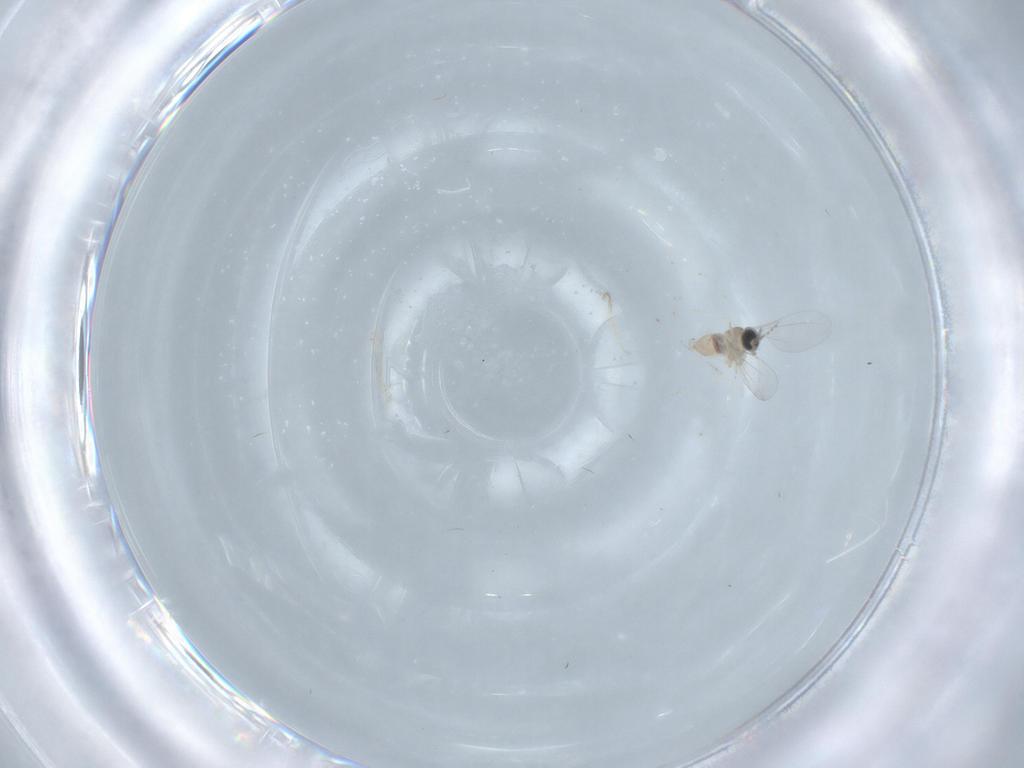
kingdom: Animalia
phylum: Arthropoda
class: Insecta
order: Diptera
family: Cecidomyiidae
